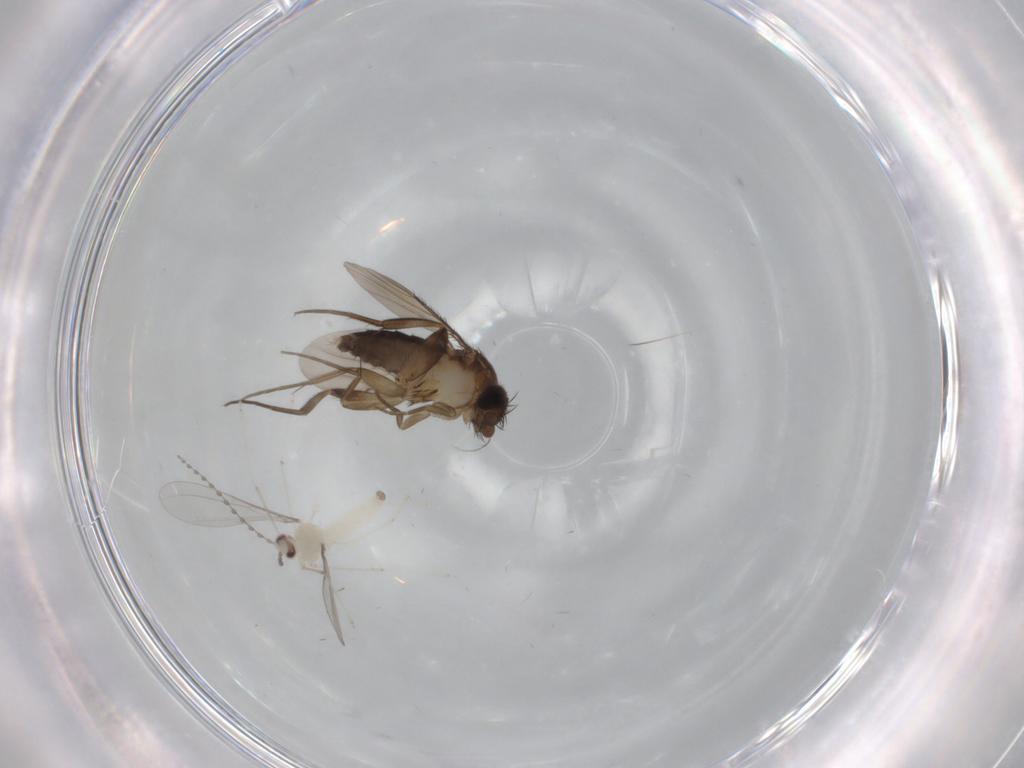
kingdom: Animalia
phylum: Arthropoda
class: Insecta
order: Diptera
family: Phoridae
